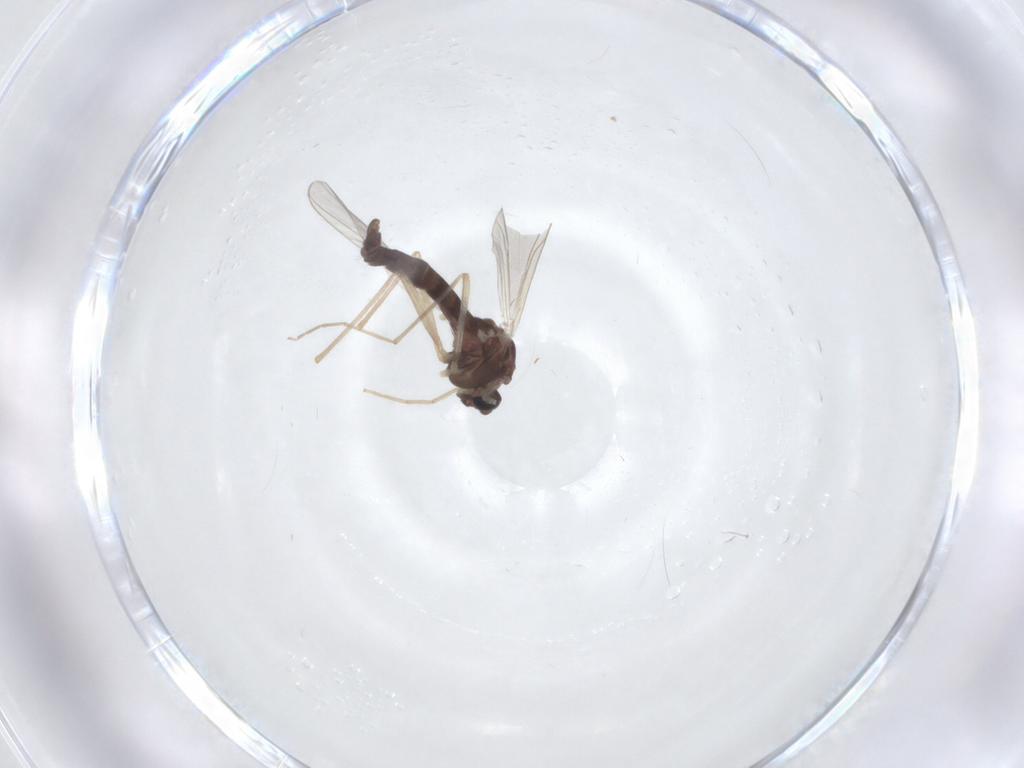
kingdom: Animalia
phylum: Arthropoda
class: Insecta
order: Diptera
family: Chironomidae
